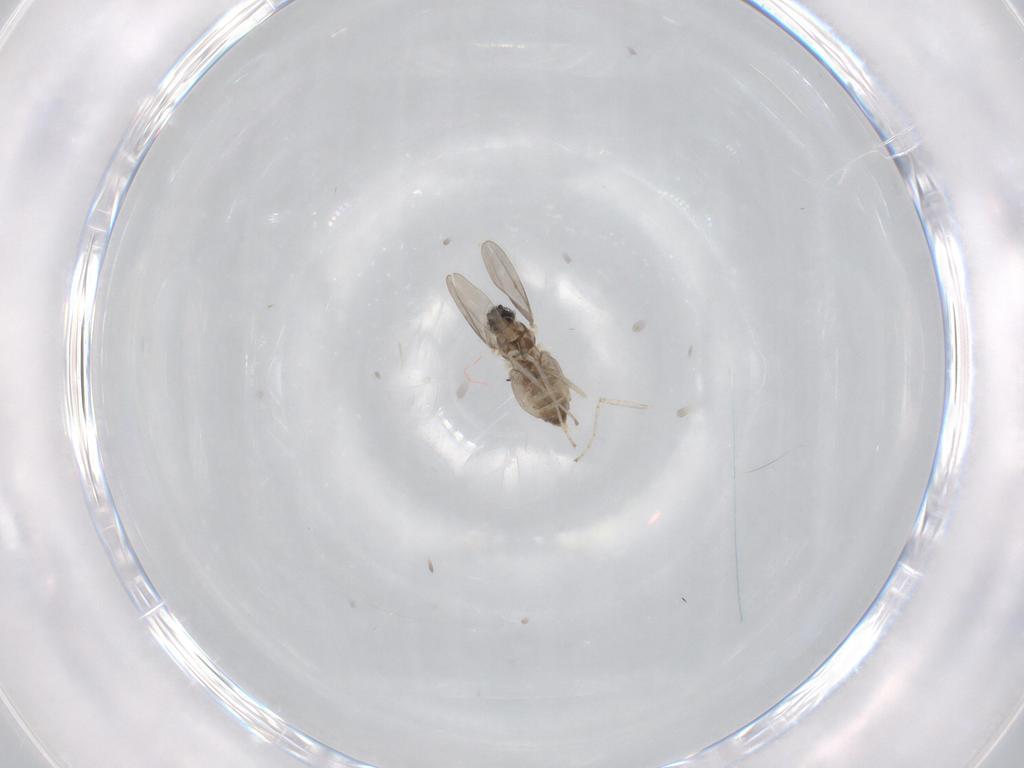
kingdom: Animalia
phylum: Arthropoda
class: Insecta
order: Diptera
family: Cecidomyiidae
